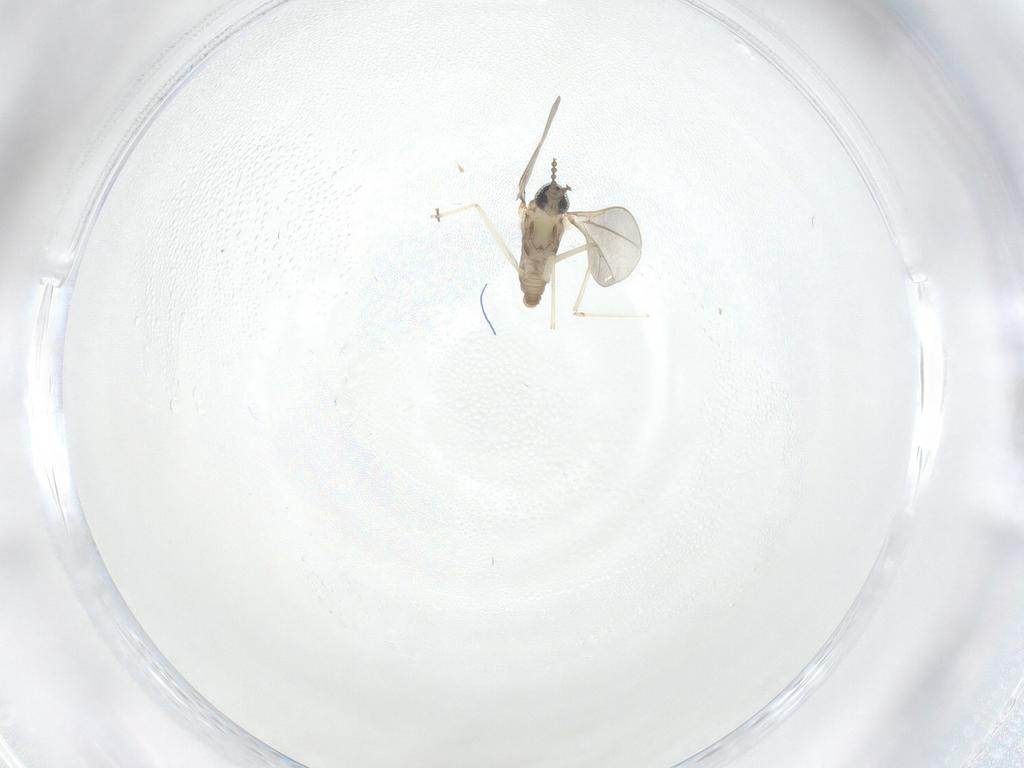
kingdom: Animalia
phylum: Arthropoda
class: Insecta
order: Diptera
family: Cecidomyiidae
